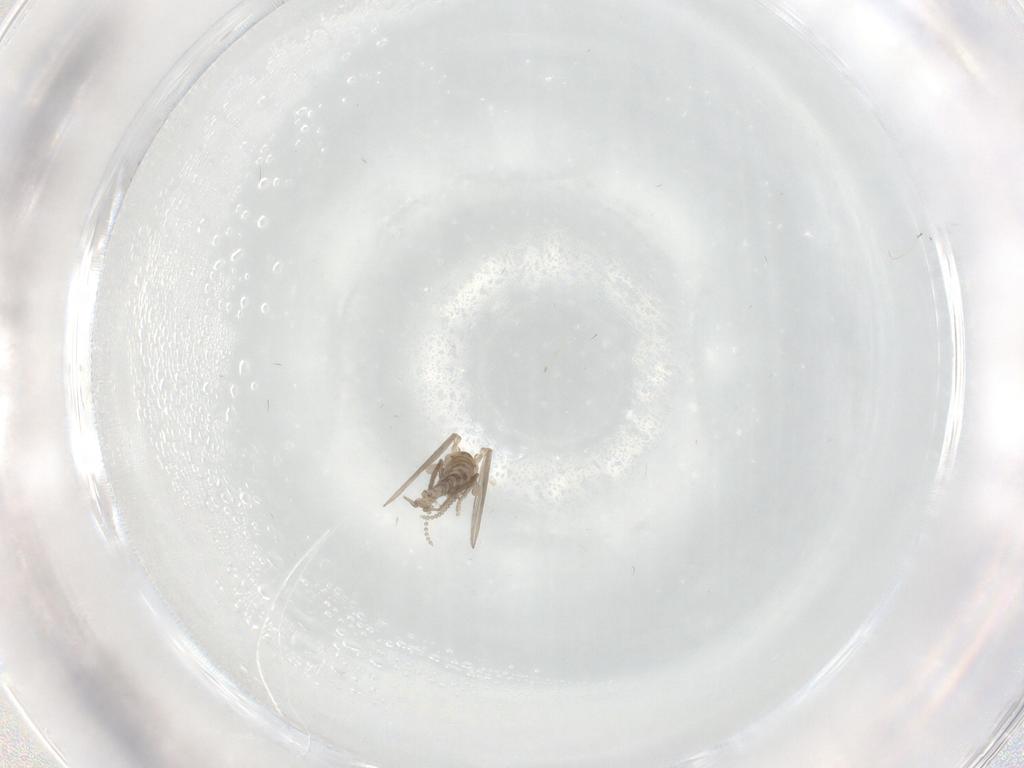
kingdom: Animalia
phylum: Arthropoda
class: Insecta
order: Diptera
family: Psychodidae
